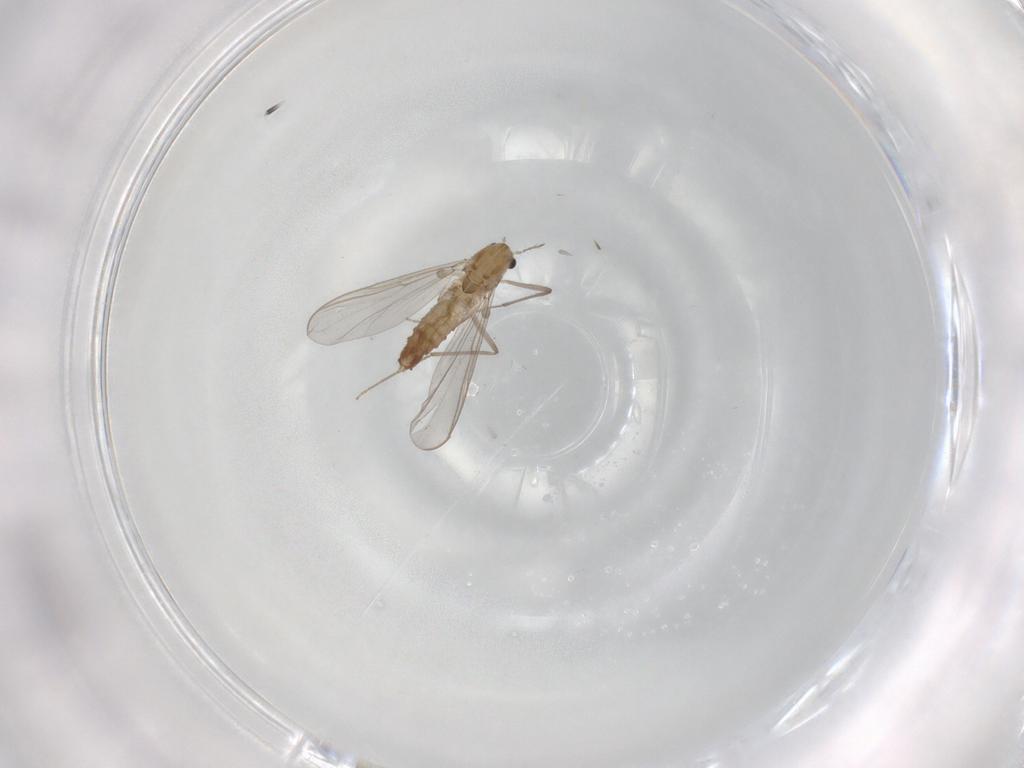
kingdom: Animalia
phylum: Arthropoda
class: Insecta
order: Diptera
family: Chironomidae
